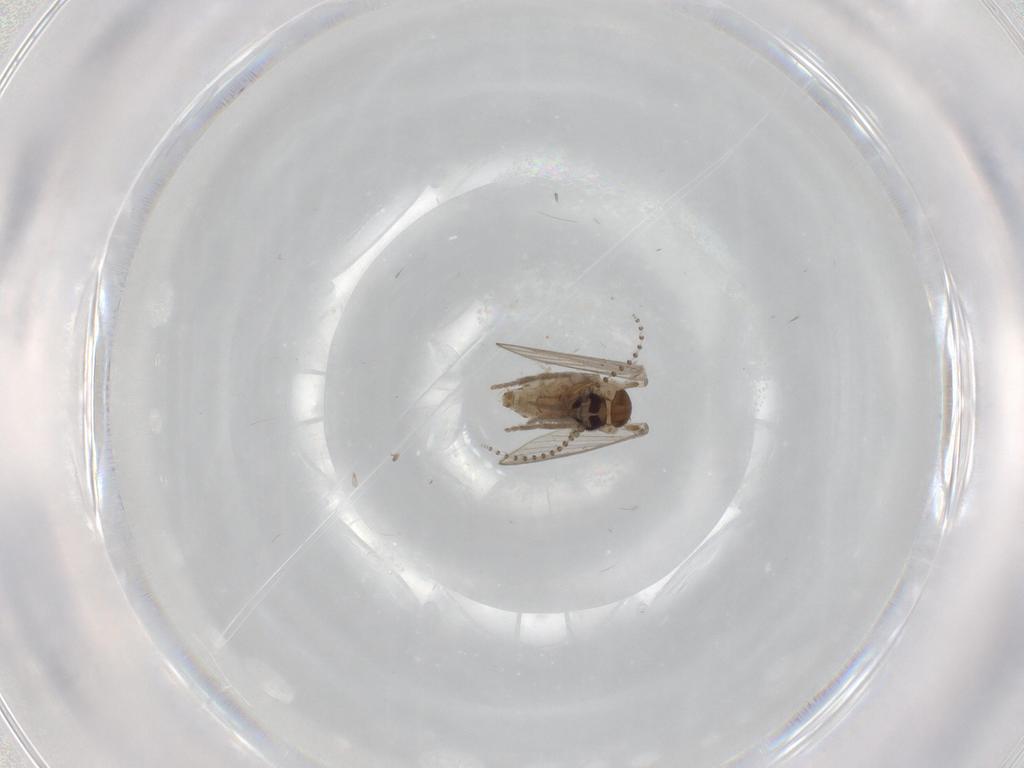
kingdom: Animalia
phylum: Arthropoda
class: Insecta
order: Diptera
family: Psychodidae
